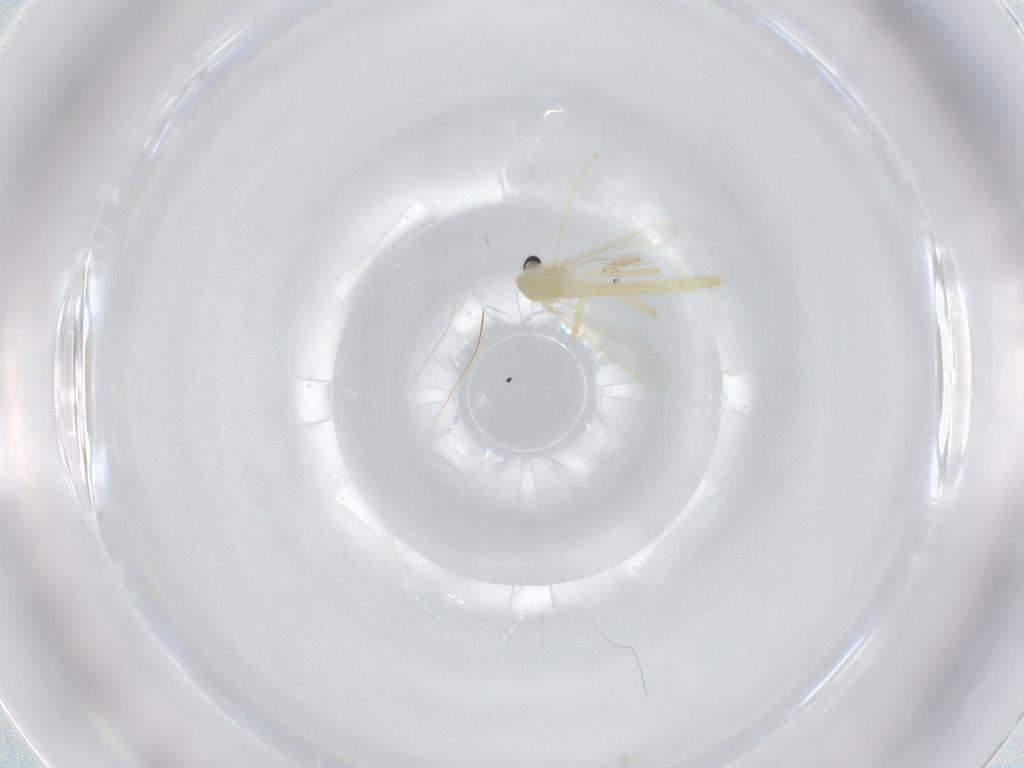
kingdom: Animalia
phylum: Arthropoda
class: Insecta
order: Diptera
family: Chironomidae
